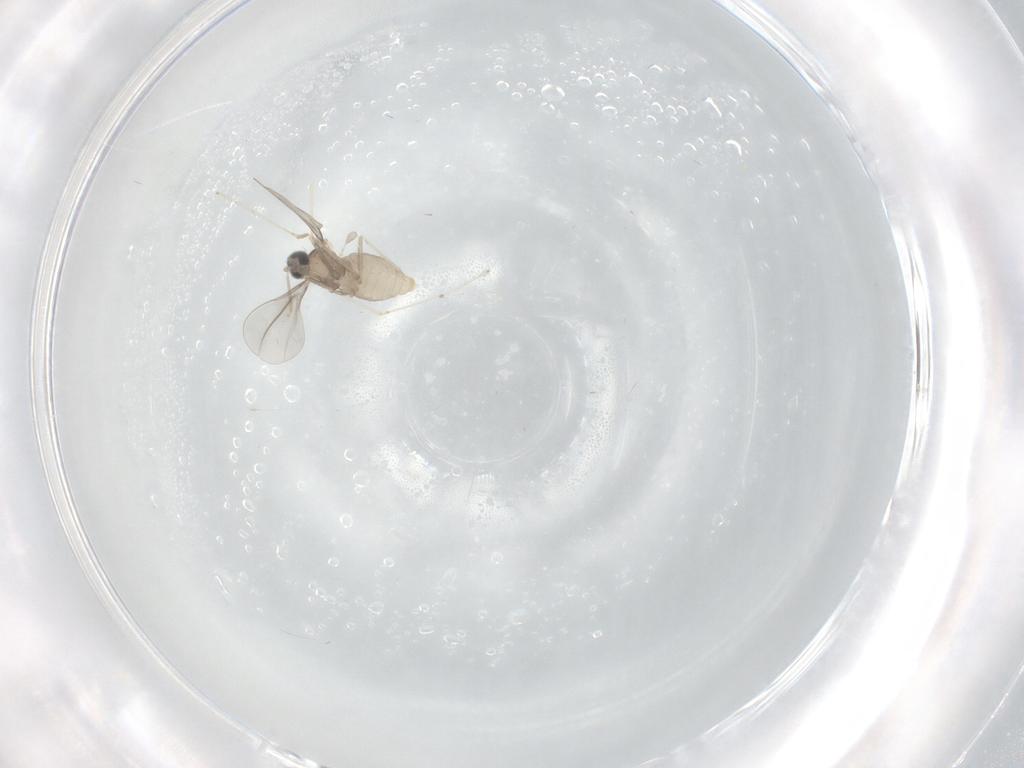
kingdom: Animalia
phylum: Arthropoda
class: Insecta
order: Diptera
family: Cecidomyiidae
